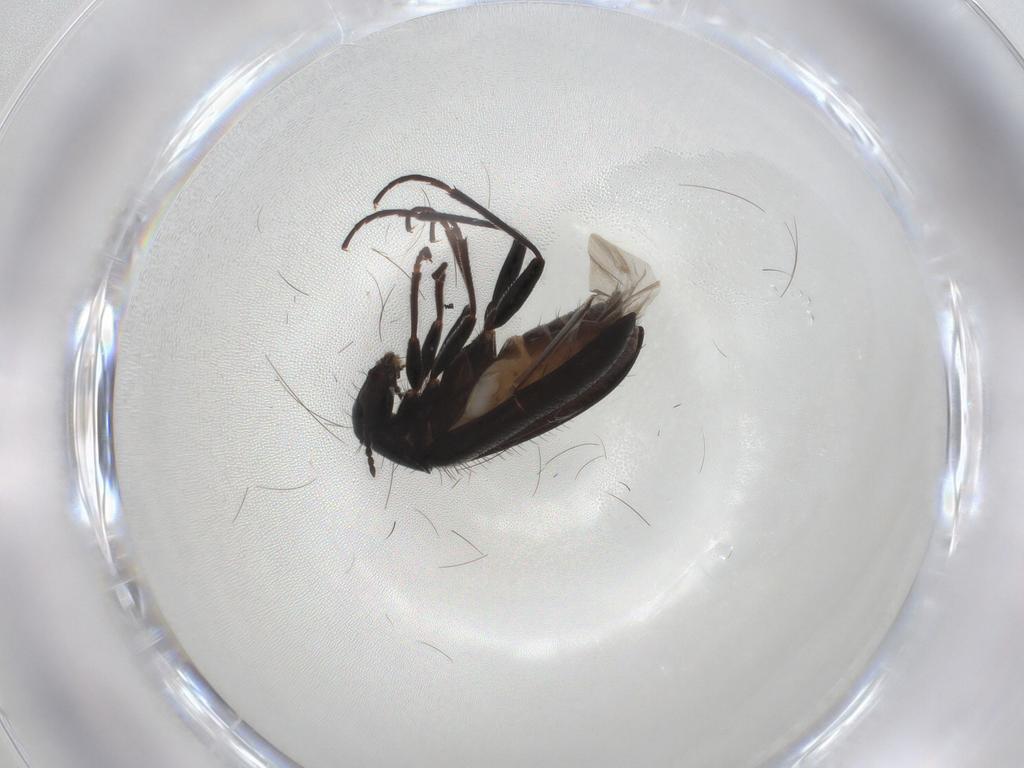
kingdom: Animalia
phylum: Arthropoda
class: Insecta
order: Coleoptera
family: Melyridae
